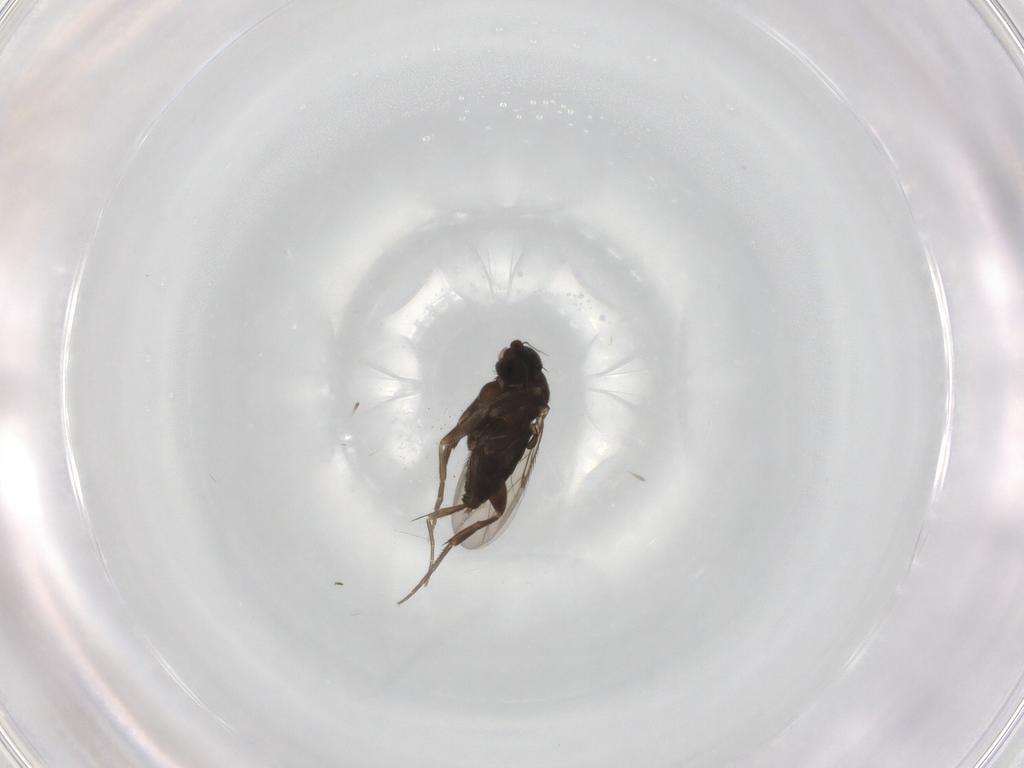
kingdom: Animalia
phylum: Arthropoda
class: Insecta
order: Diptera
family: Phoridae
